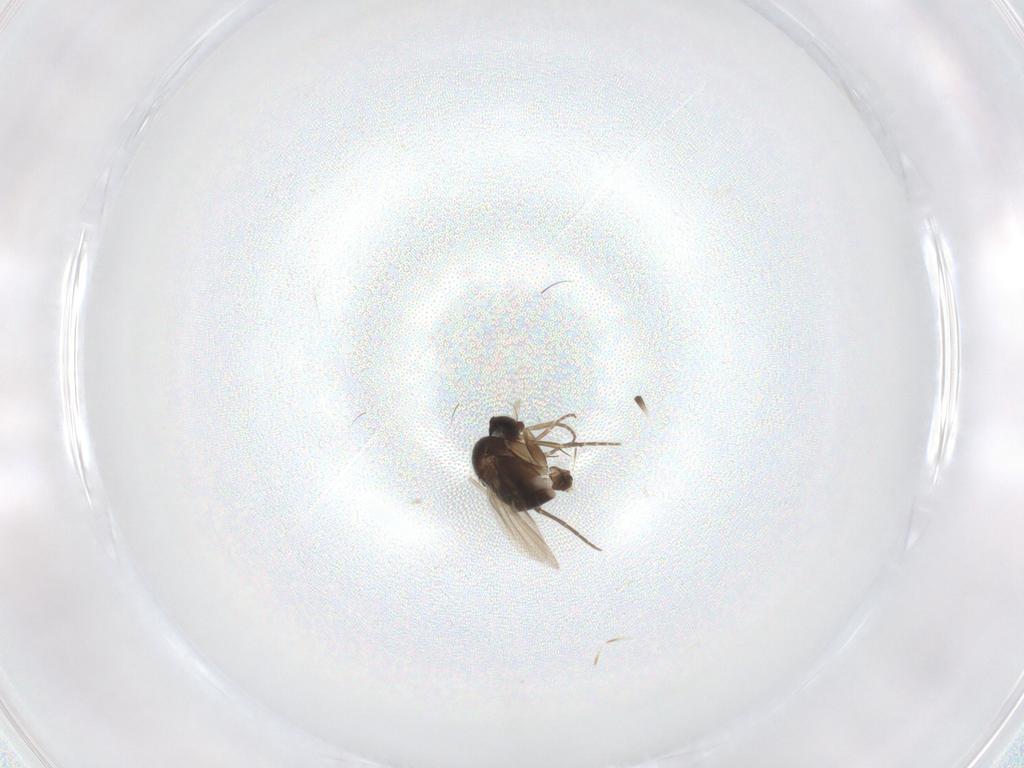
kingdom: Animalia
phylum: Arthropoda
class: Insecta
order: Diptera
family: Phoridae
